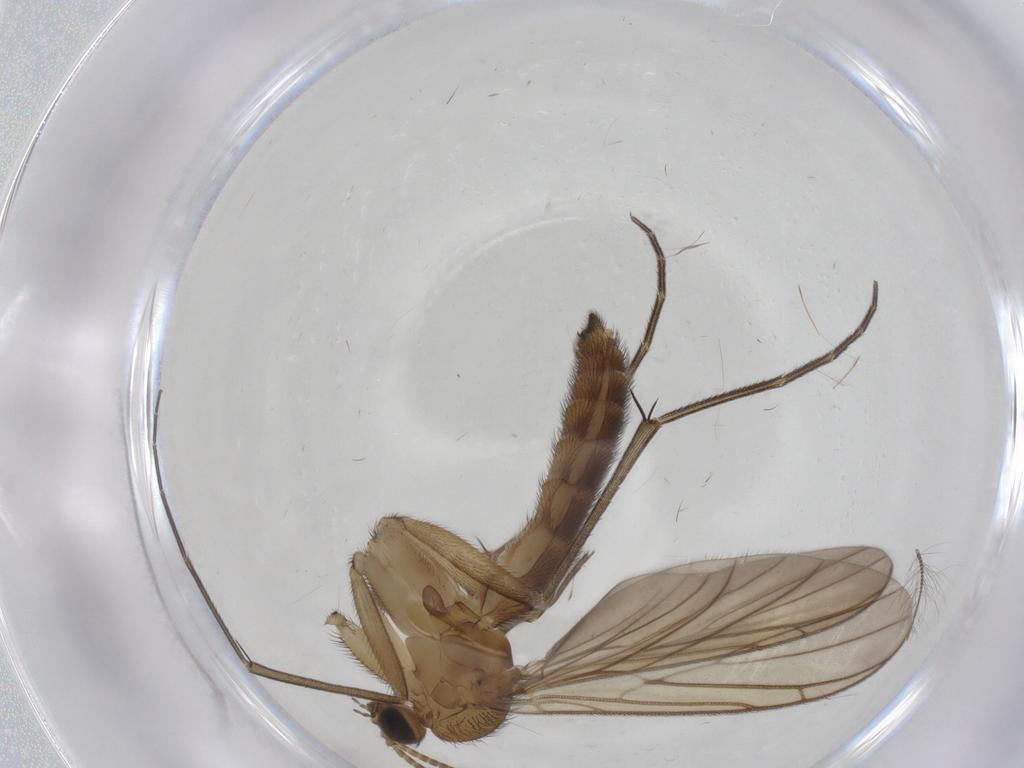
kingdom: Animalia
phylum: Arthropoda
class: Insecta
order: Diptera
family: Keroplatidae
